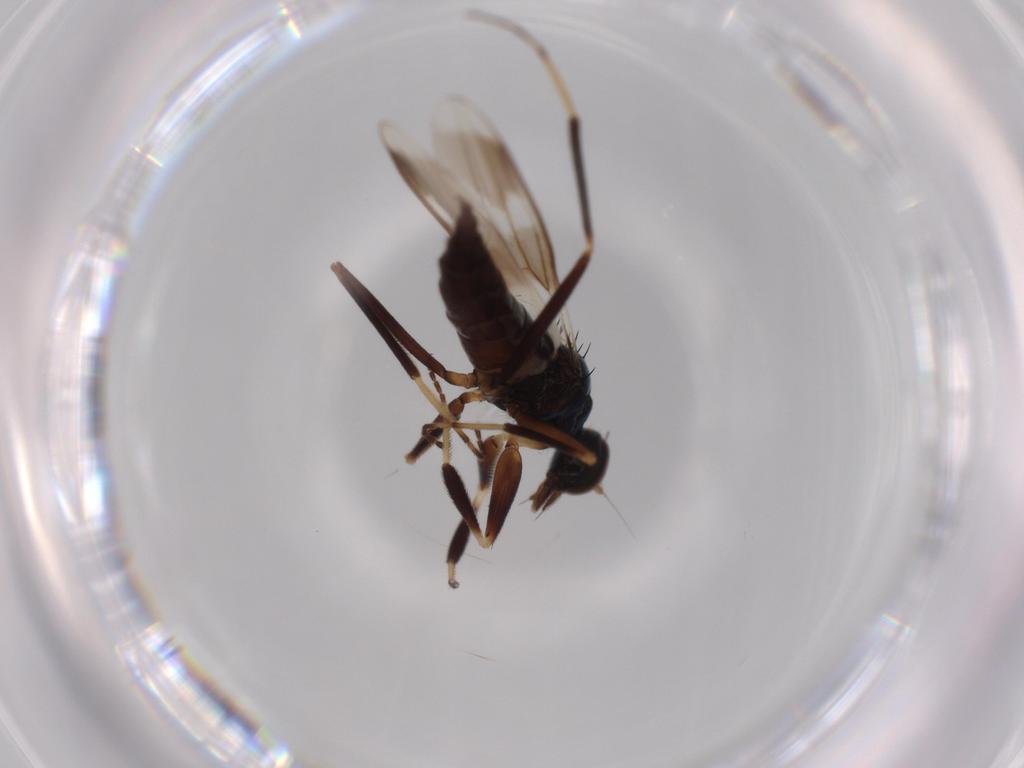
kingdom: Animalia
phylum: Arthropoda
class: Insecta
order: Diptera
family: Hybotidae
